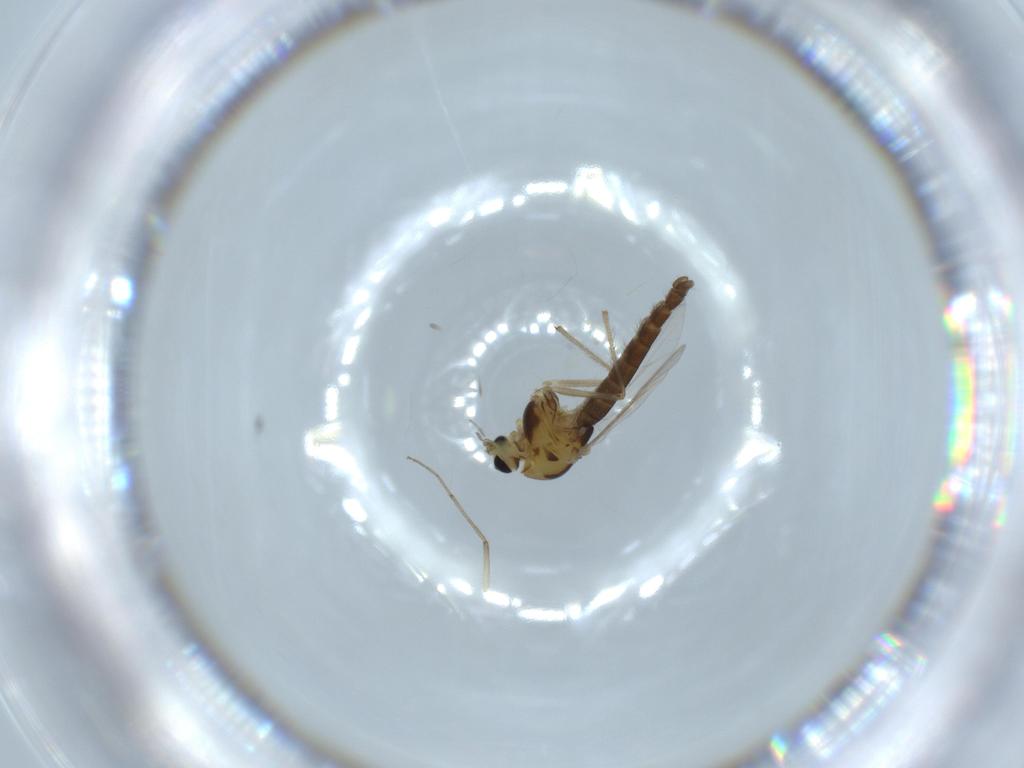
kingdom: Animalia
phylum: Arthropoda
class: Insecta
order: Diptera
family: Chironomidae
